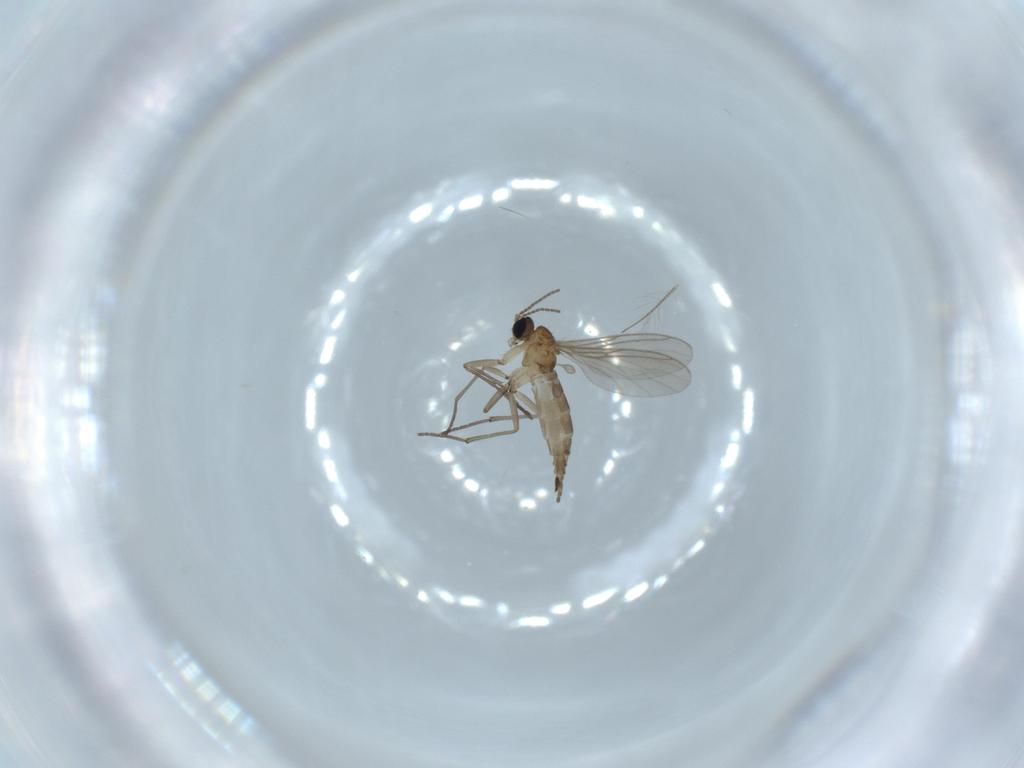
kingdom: Animalia
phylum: Arthropoda
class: Insecta
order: Diptera
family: Sciaridae
